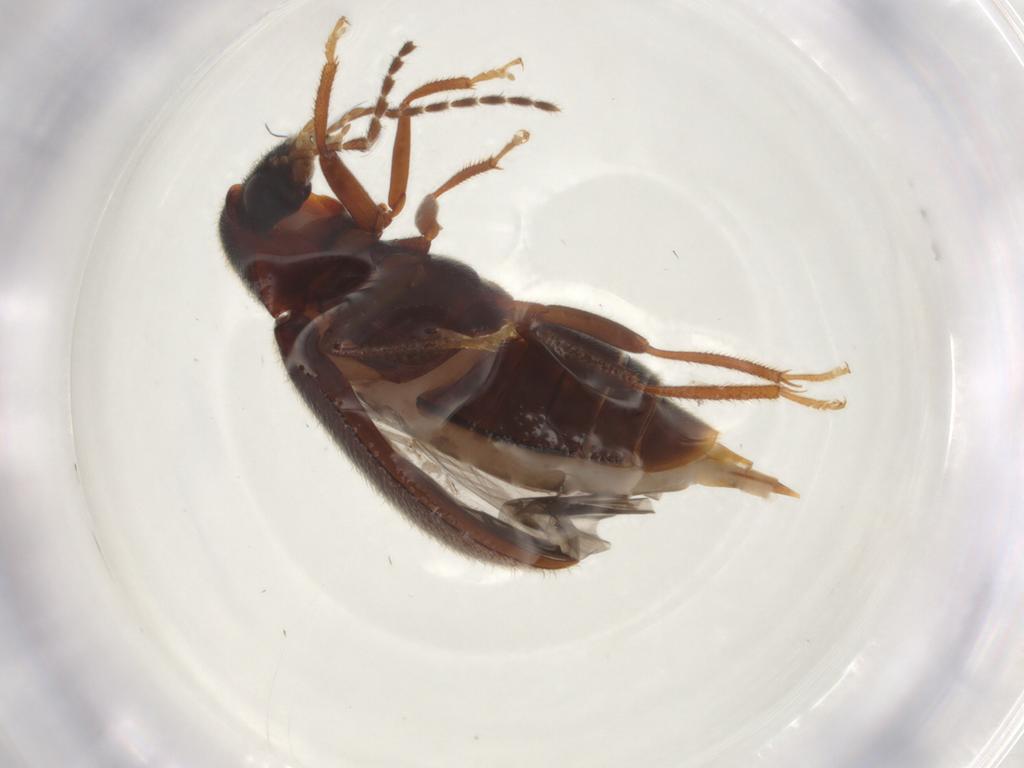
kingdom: Animalia
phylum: Arthropoda
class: Insecta
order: Coleoptera
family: Ptilodactylidae
